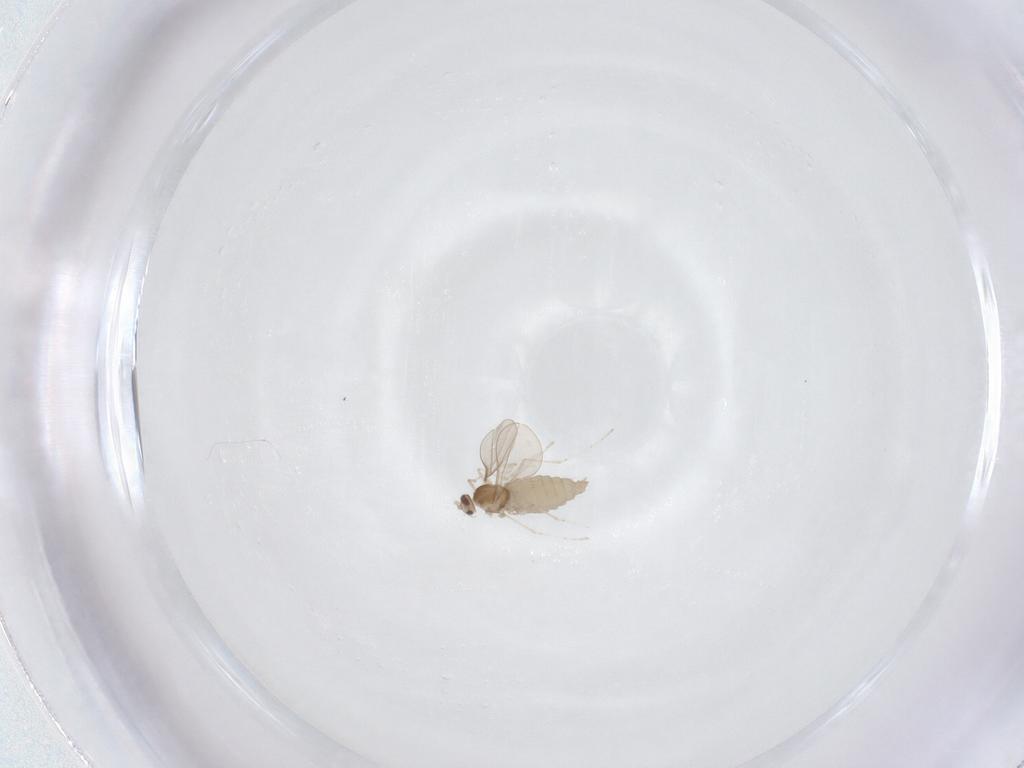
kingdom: Animalia
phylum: Arthropoda
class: Insecta
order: Diptera
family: Cecidomyiidae
